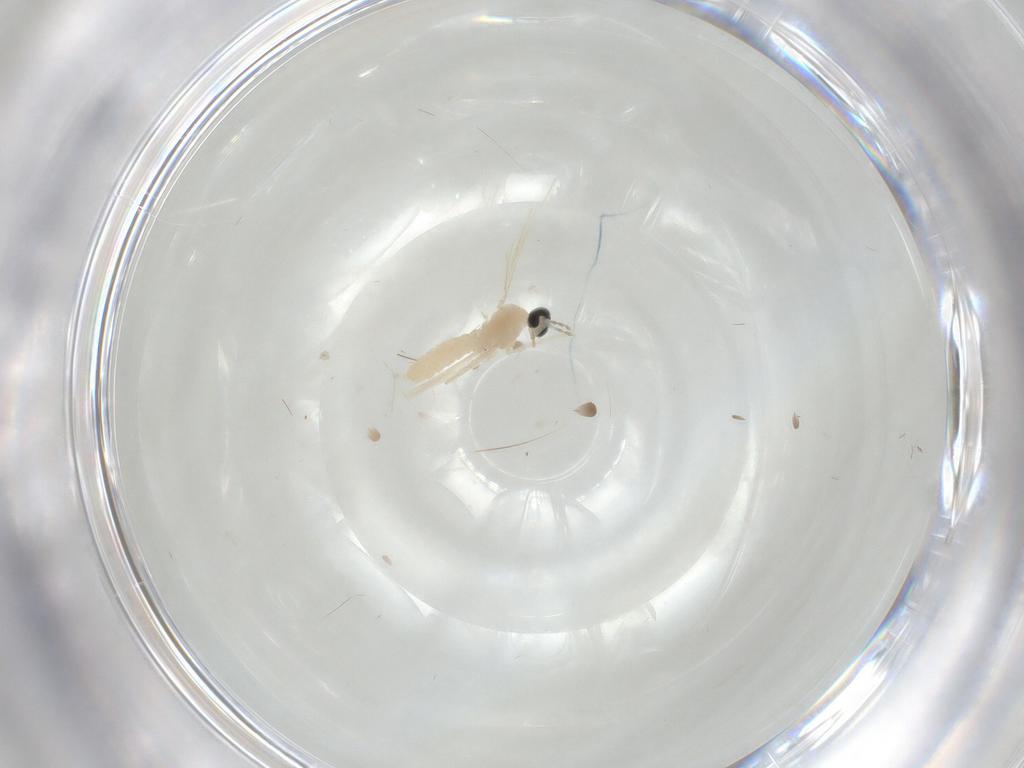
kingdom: Animalia
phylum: Arthropoda
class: Insecta
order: Diptera
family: Cecidomyiidae
